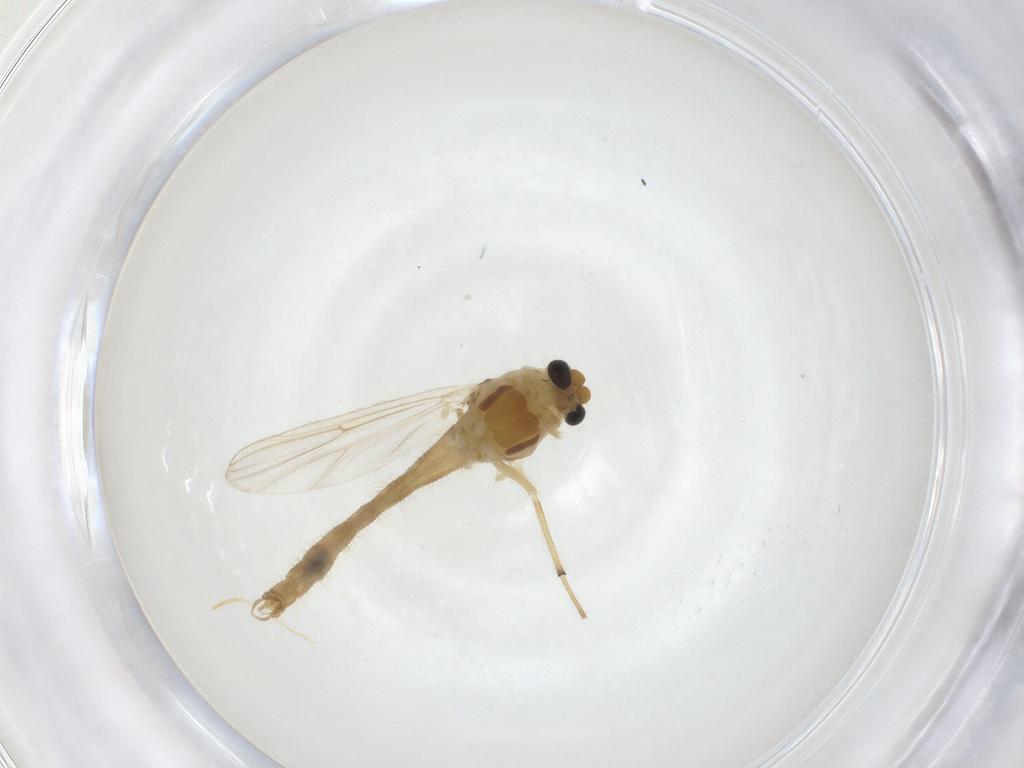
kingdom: Animalia
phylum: Arthropoda
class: Insecta
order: Diptera
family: Chironomidae
